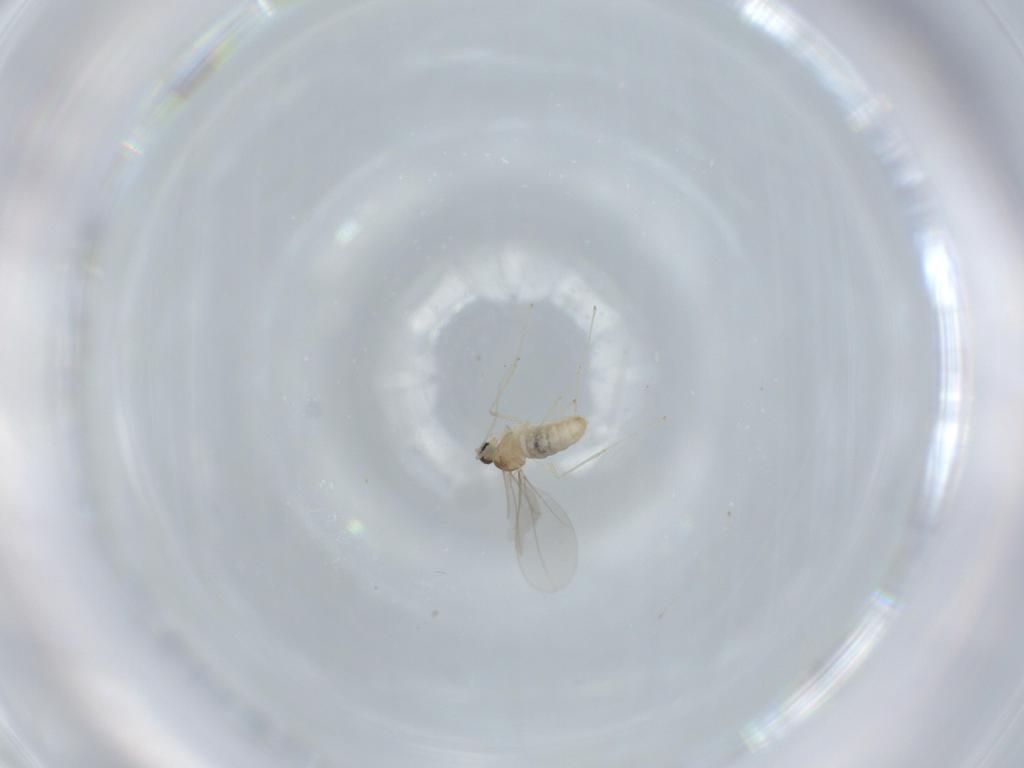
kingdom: Animalia
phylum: Arthropoda
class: Insecta
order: Diptera
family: Cecidomyiidae
